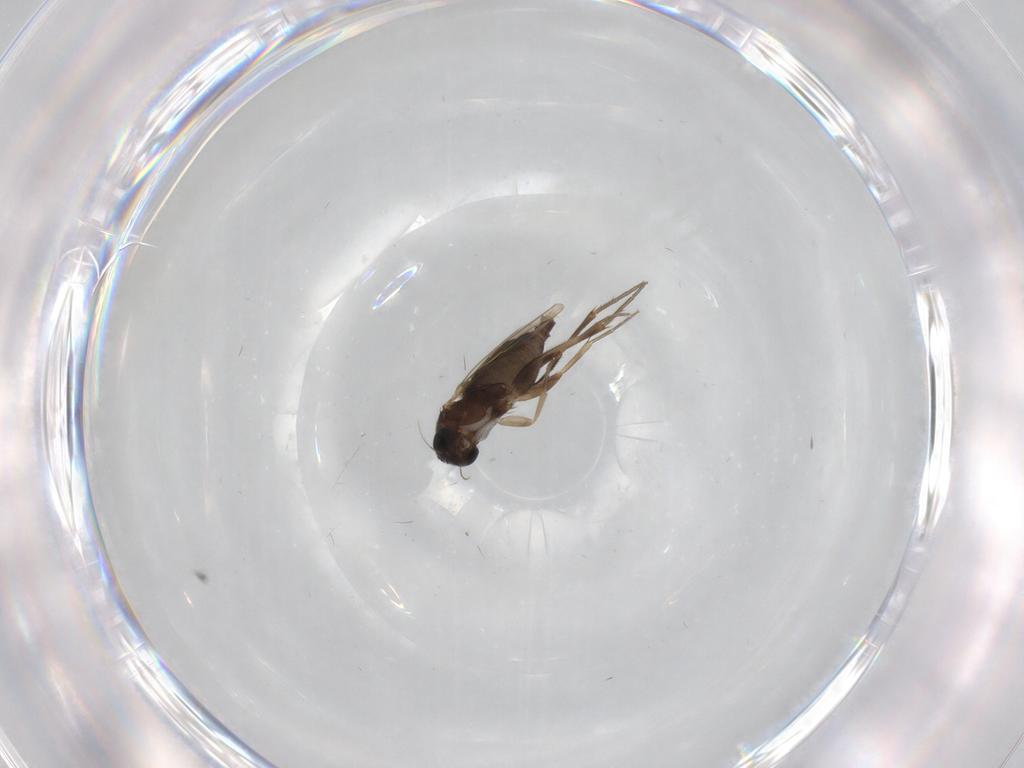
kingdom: Animalia
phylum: Arthropoda
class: Insecta
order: Diptera
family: Phoridae
